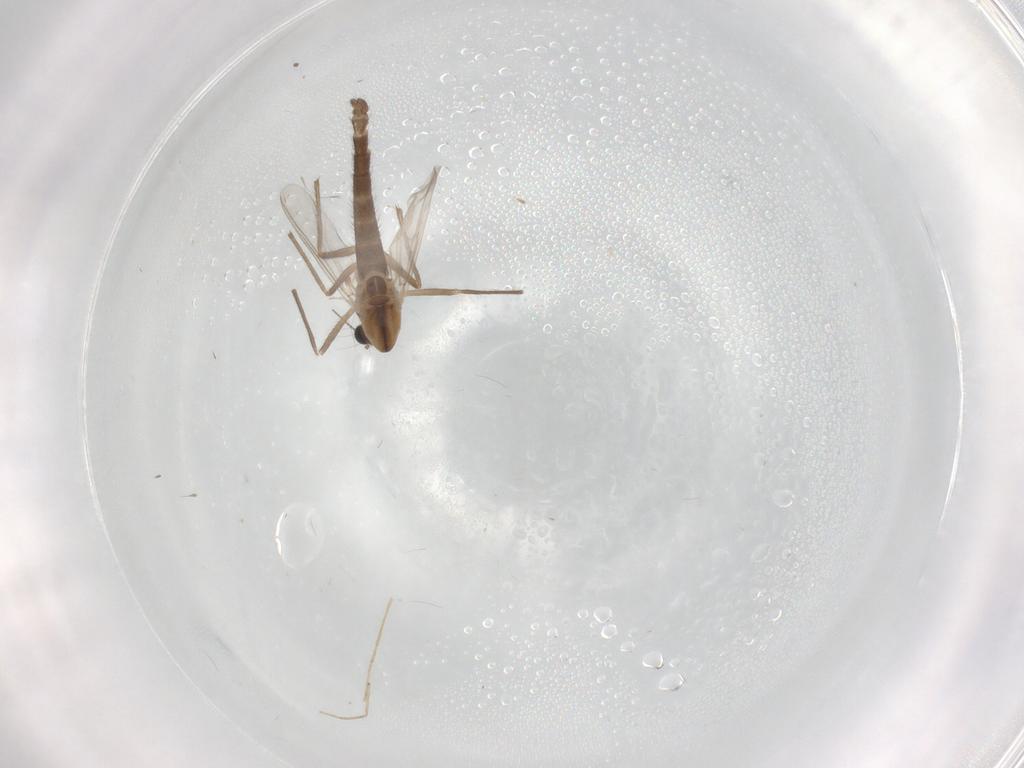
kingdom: Animalia
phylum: Arthropoda
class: Insecta
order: Diptera
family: Chironomidae
